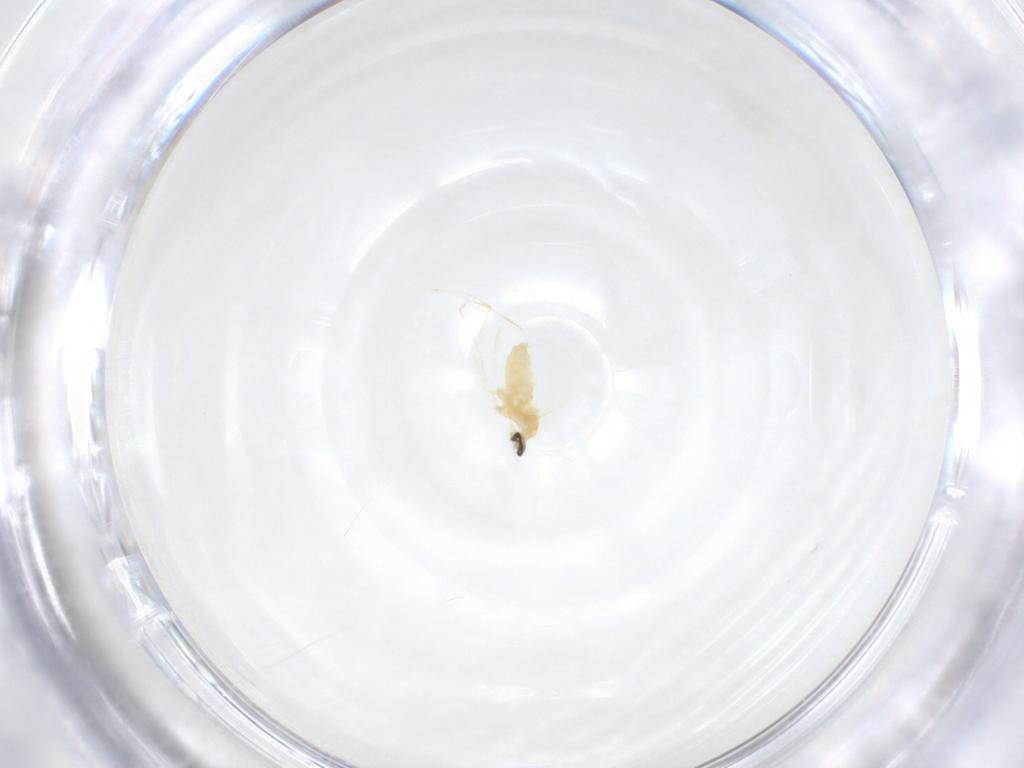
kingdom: Animalia
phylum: Arthropoda
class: Insecta
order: Diptera
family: Cecidomyiidae
